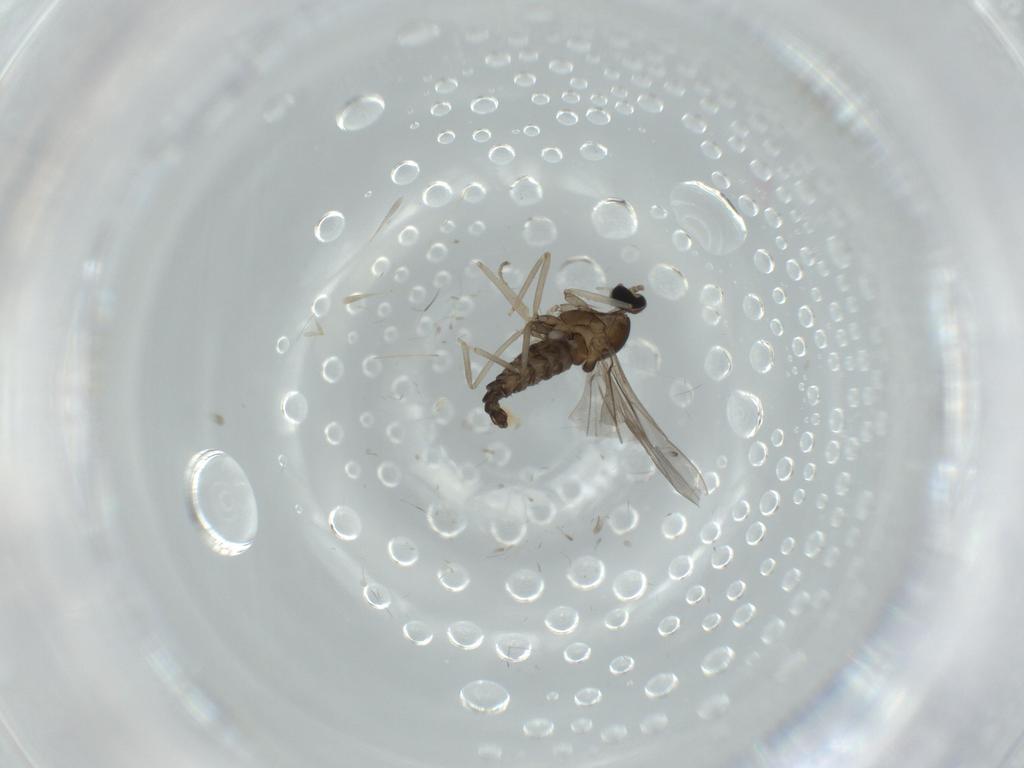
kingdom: Animalia
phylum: Arthropoda
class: Insecta
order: Diptera
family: Cecidomyiidae
